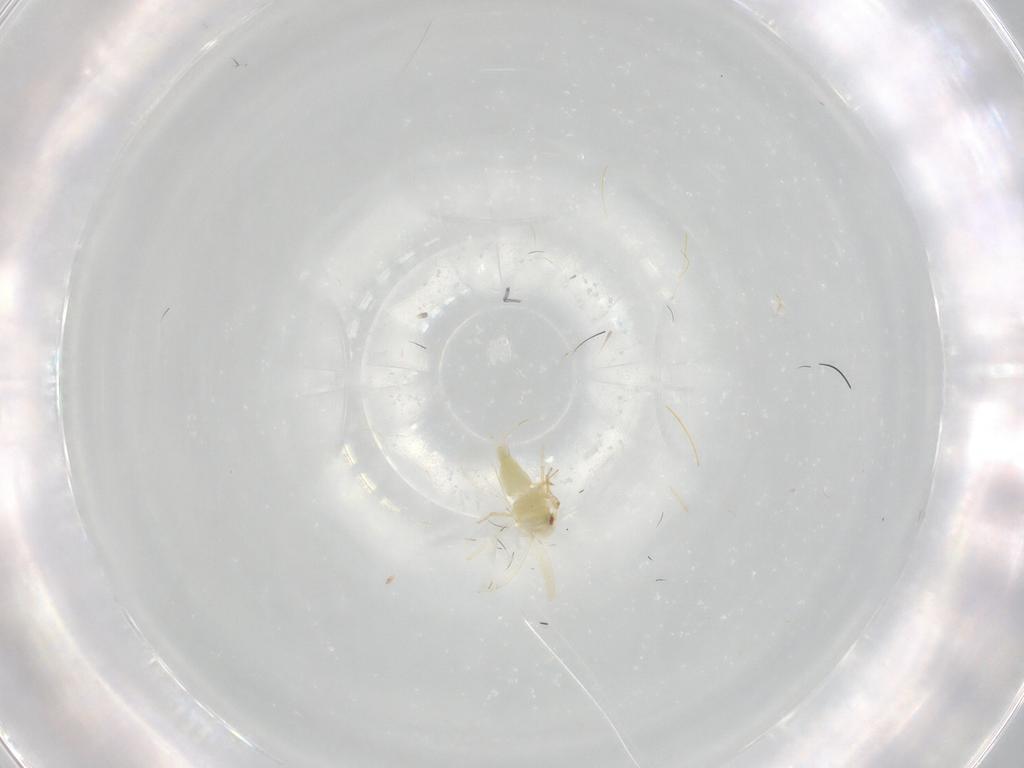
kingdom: Animalia
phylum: Arthropoda
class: Insecta
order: Hemiptera
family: Aleyrodidae
